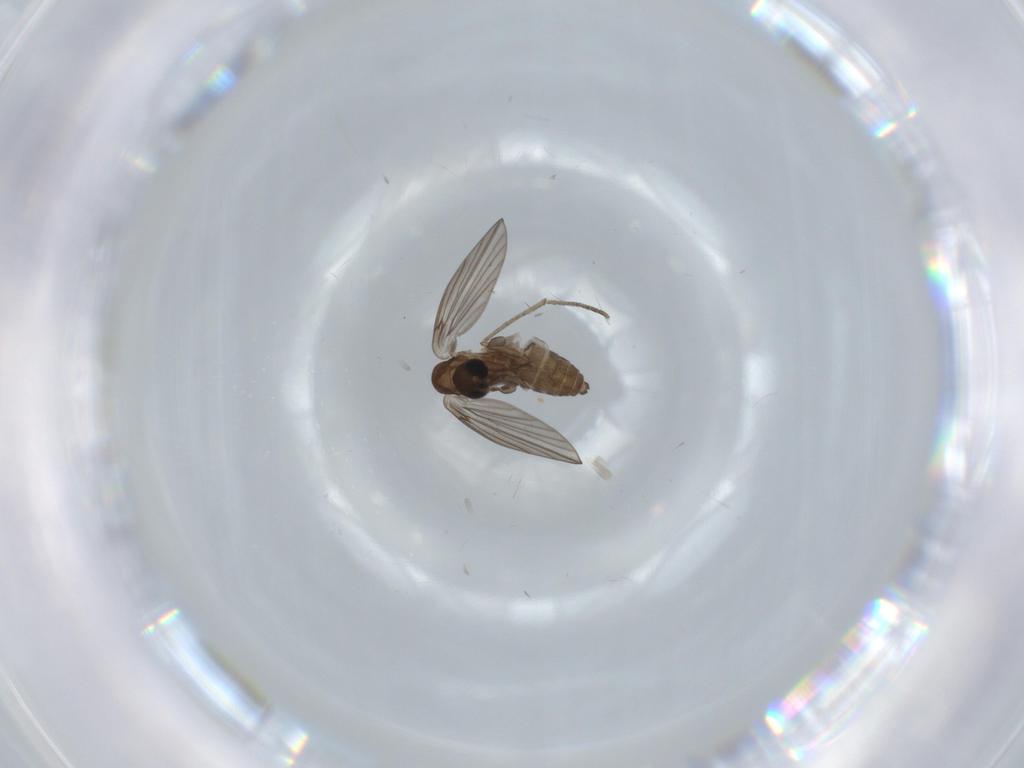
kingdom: Animalia
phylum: Arthropoda
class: Insecta
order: Diptera
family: Psychodidae
